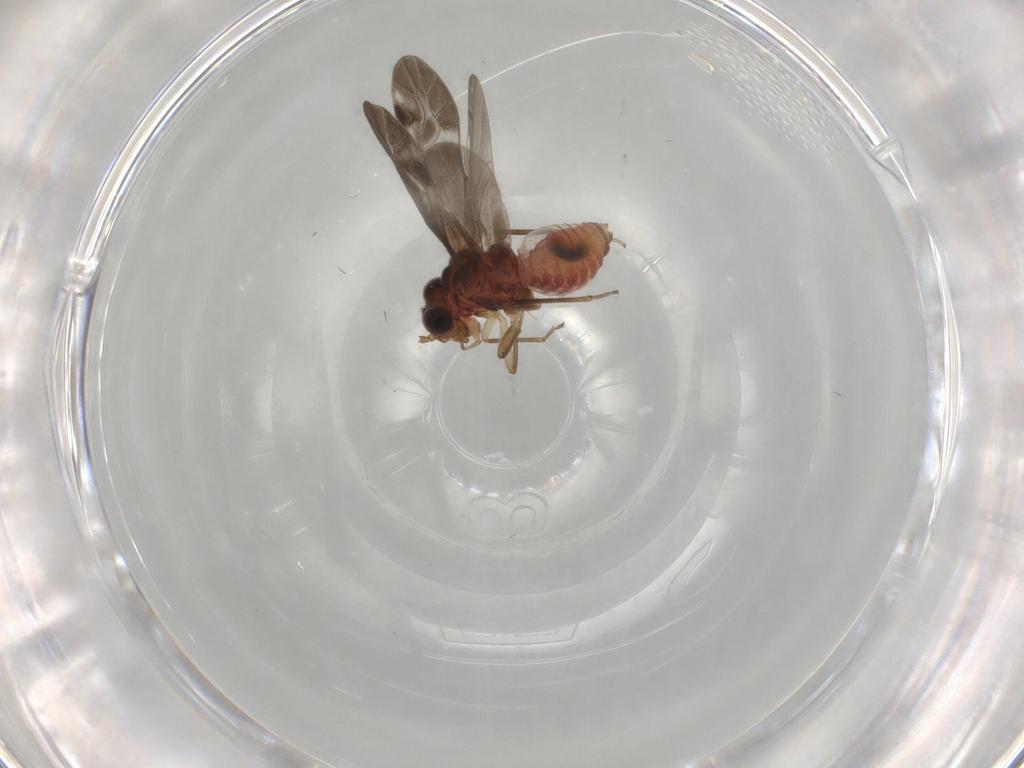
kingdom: Animalia
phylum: Arthropoda
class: Insecta
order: Psocodea
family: Caeciliusidae
